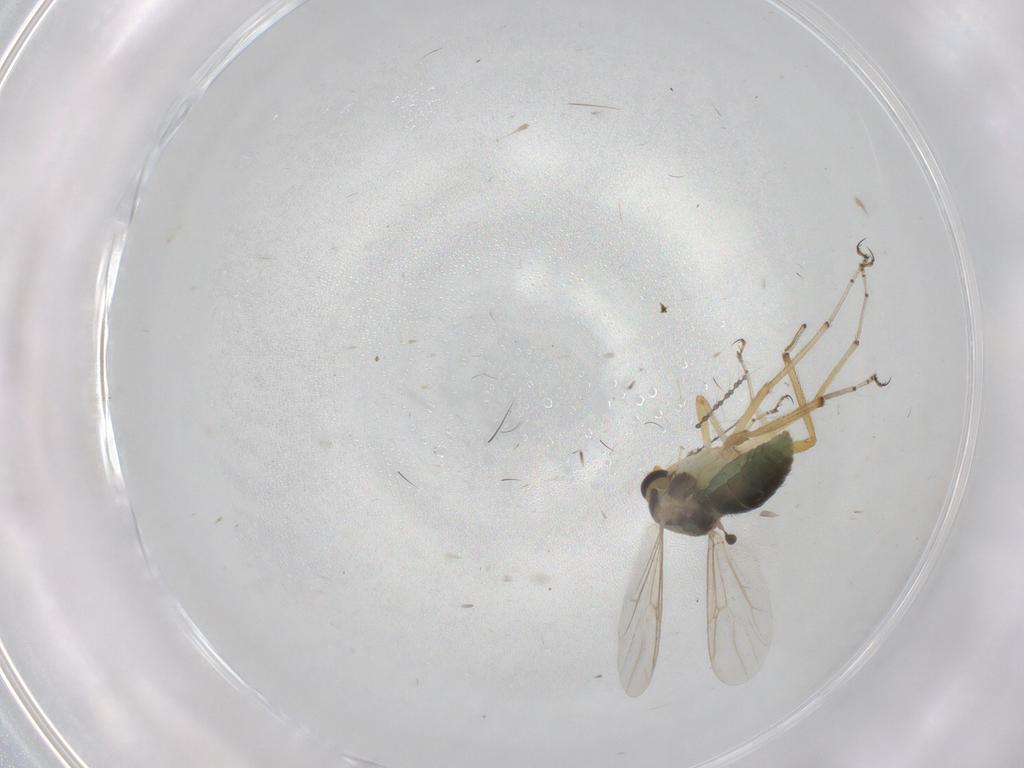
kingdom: Animalia
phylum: Arthropoda
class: Insecta
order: Diptera
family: Ceratopogonidae
